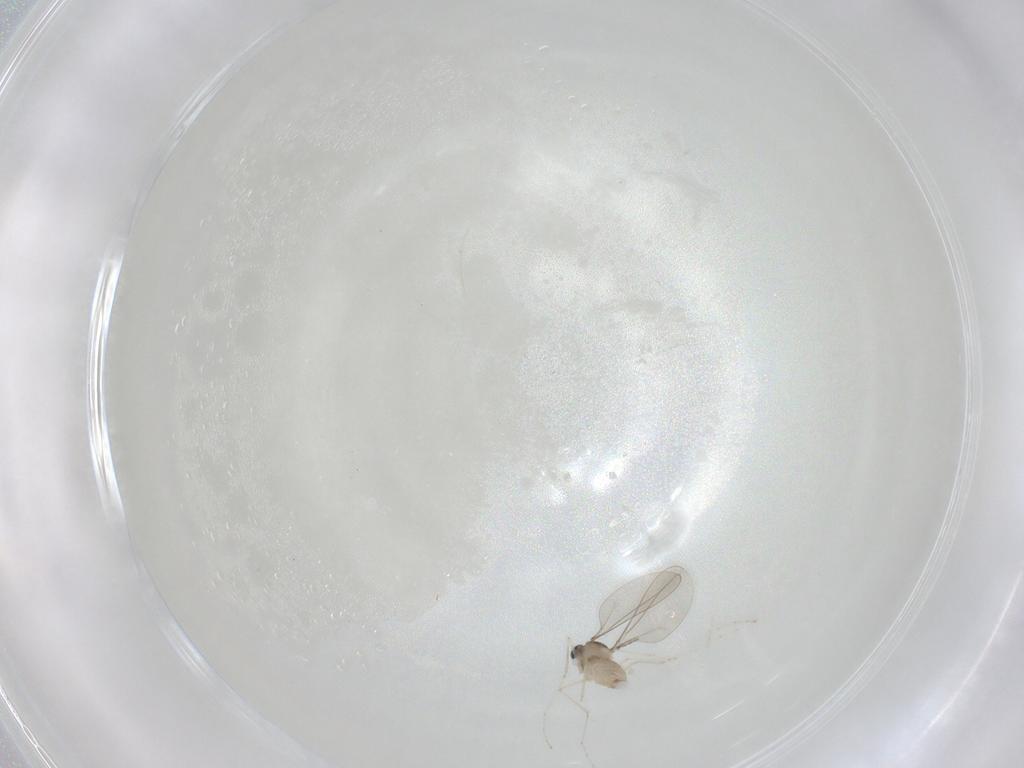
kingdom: Animalia
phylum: Arthropoda
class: Insecta
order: Diptera
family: Cecidomyiidae
